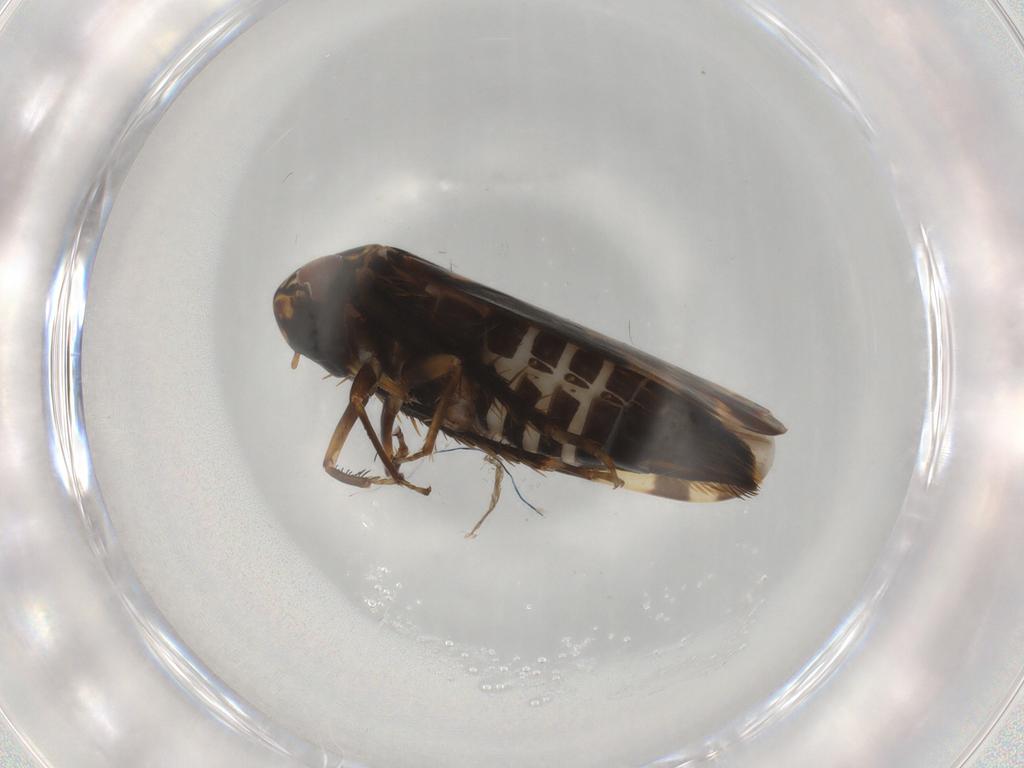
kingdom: Animalia
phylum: Arthropoda
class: Insecta
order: Hemiptera
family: Cicadellidae
